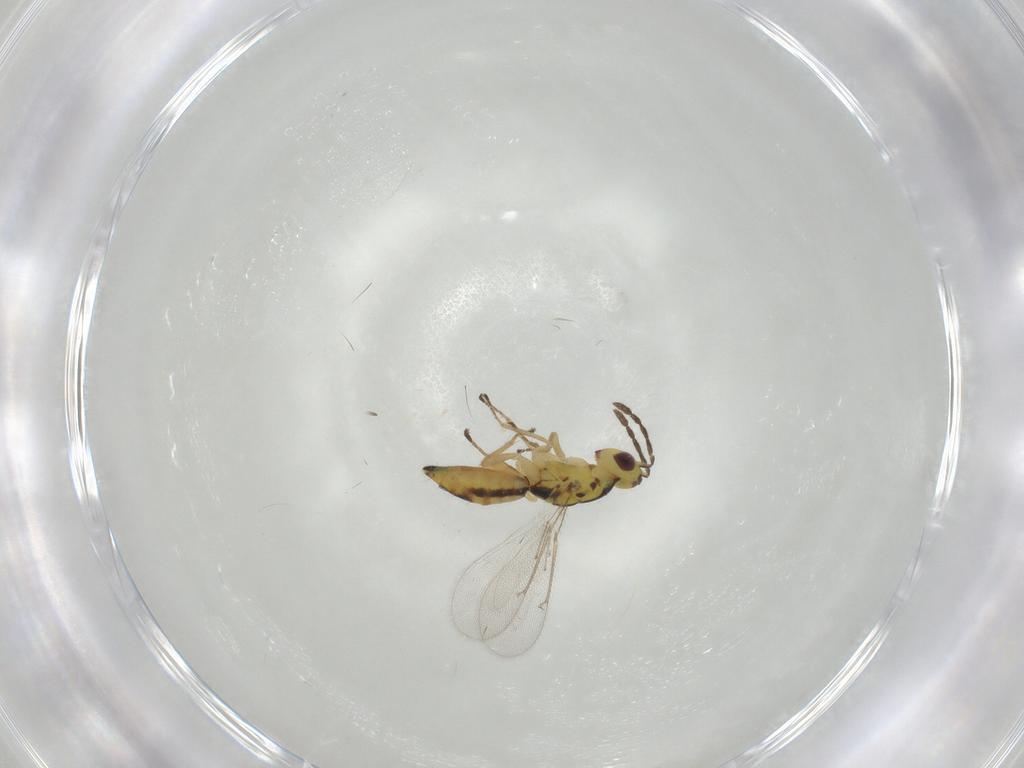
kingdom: Animalia
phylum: Arthropoda
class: Insecta
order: Hymenoptera
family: Eulophidae
